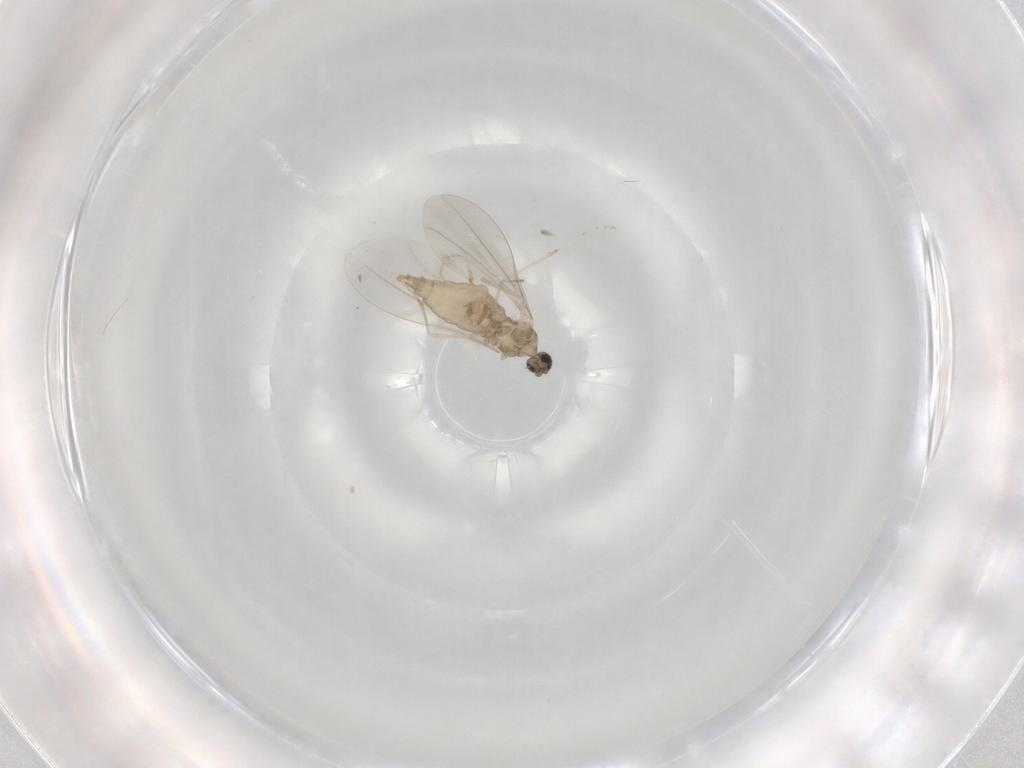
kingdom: Animalia
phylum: Arthropoda
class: Insecta
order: Diptera
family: Cecidomyiidae
